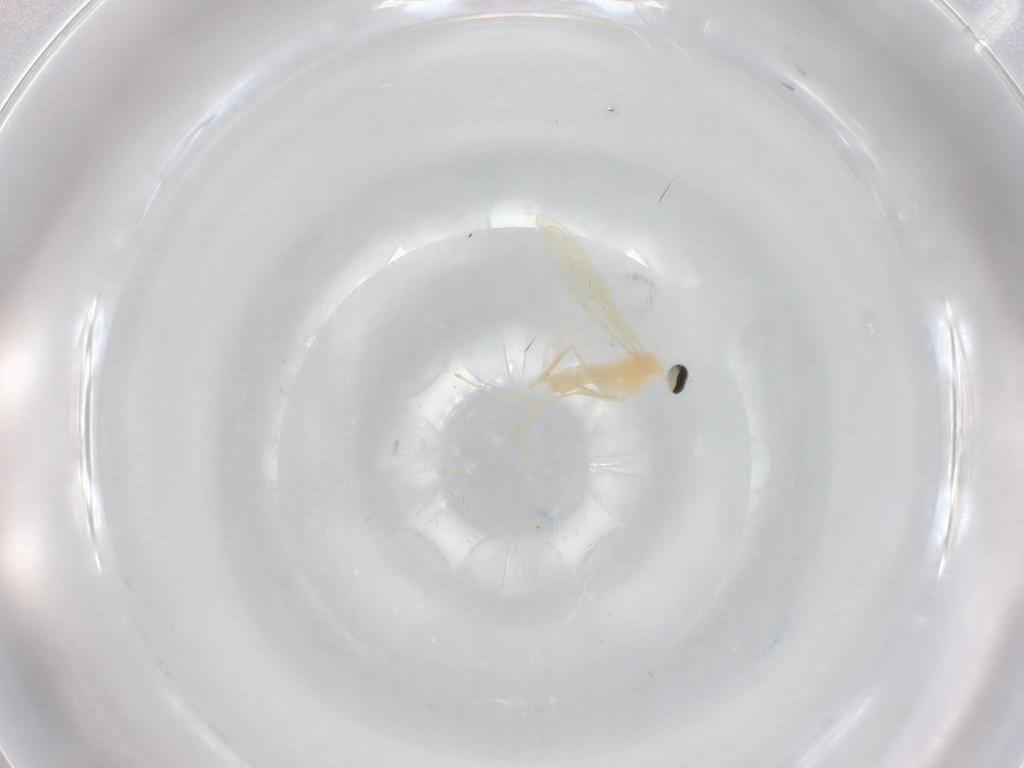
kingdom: Animalia
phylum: Arthropoda
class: Insecta
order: Diptera
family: Cecidomyiidae
